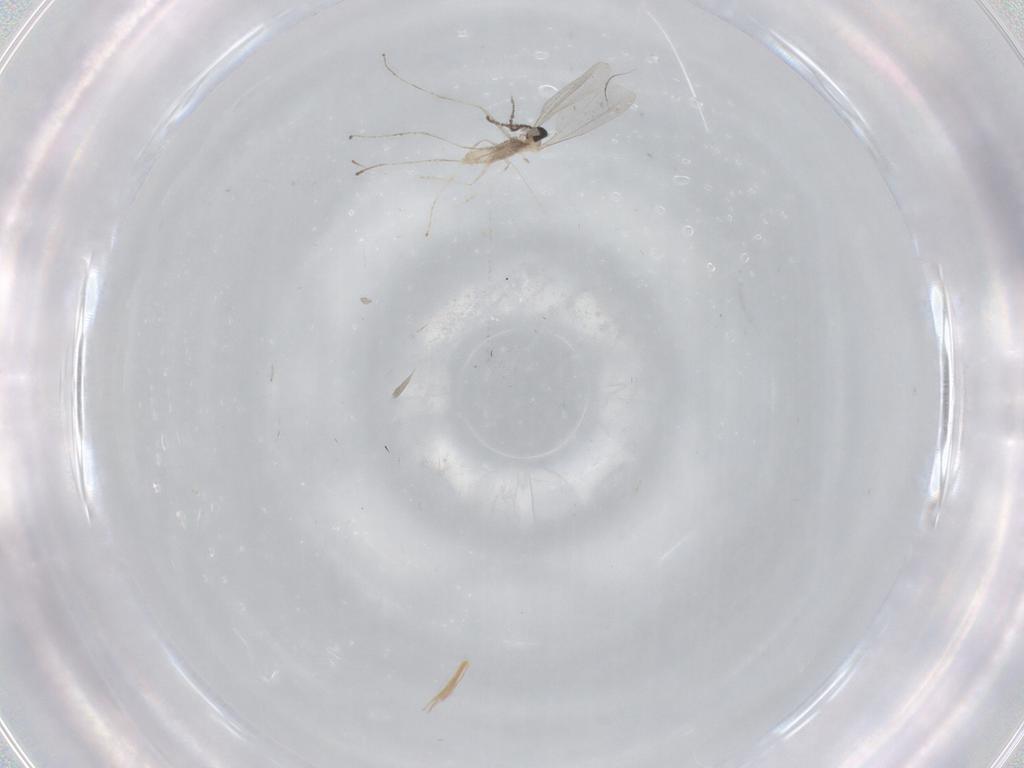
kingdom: Animalia
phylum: Arthropoda
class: Insecta
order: Diptera
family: Cecidomyiidae
